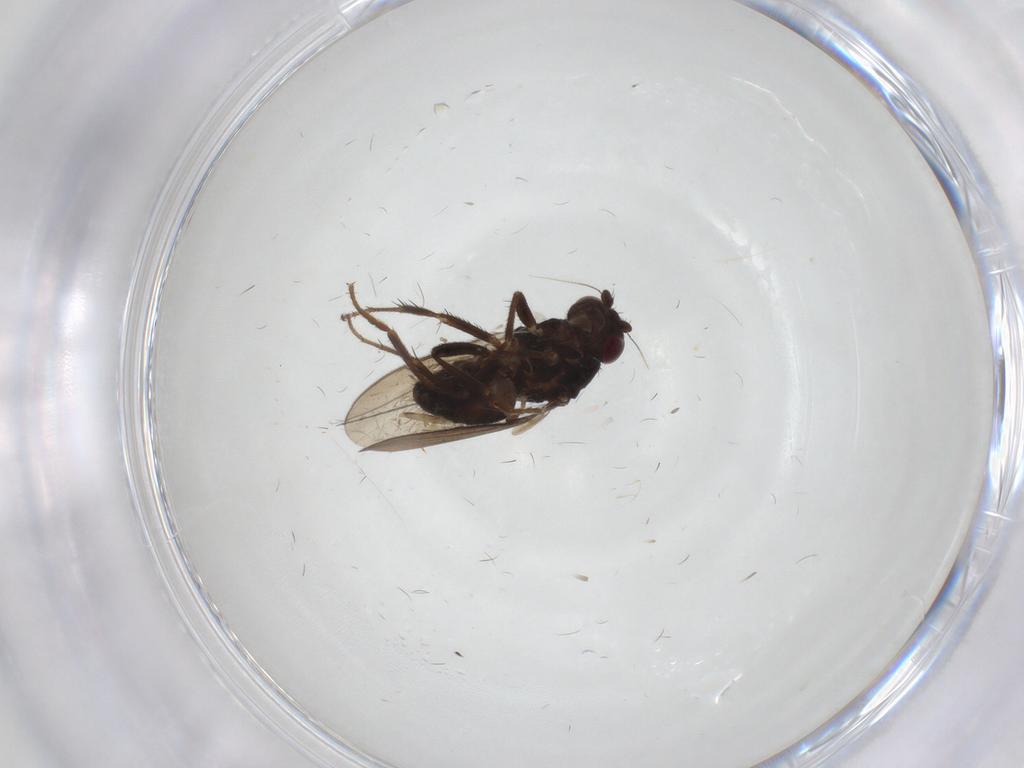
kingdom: Animalia
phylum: Arthropoda
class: Insecta
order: Diptera
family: Sphaeroceridae
